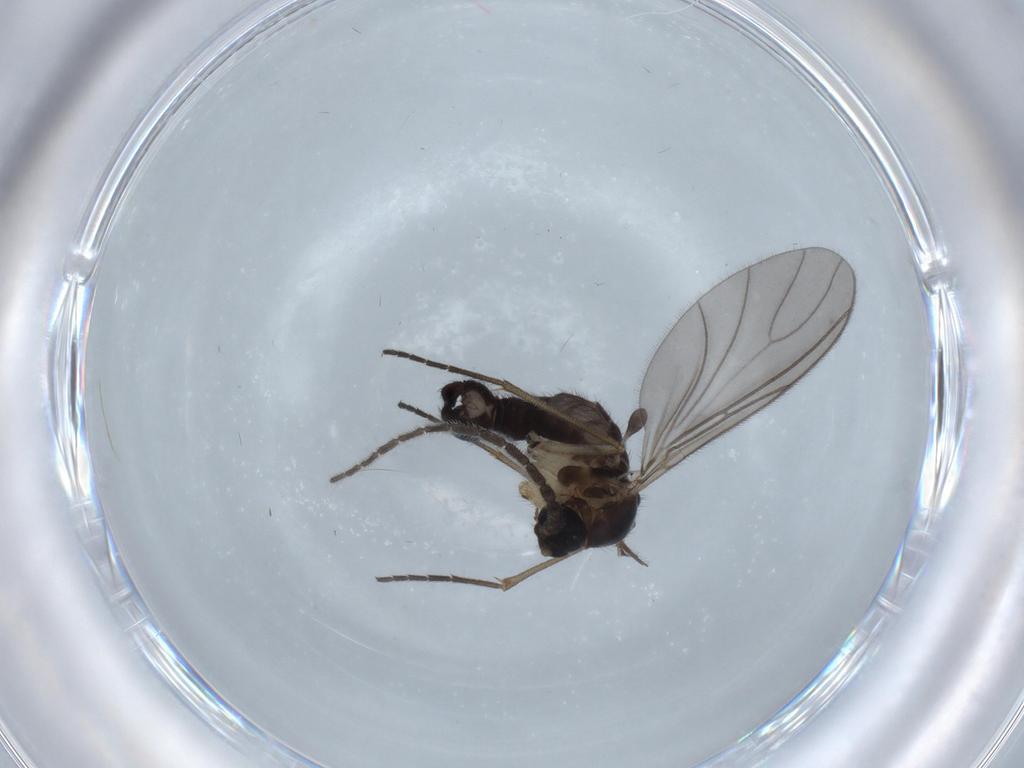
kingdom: Animalia
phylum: Arthropoda
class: Insecta
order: Diptera
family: Sciaridae
